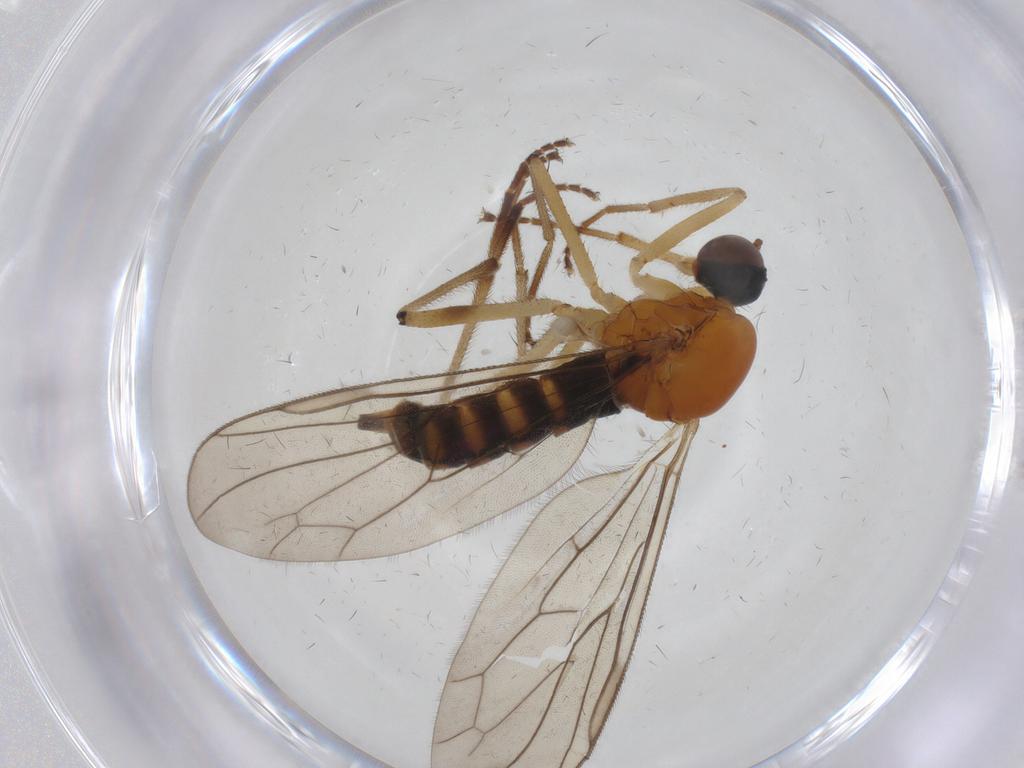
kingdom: Animalia
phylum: Arthropoda
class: Insecta
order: Diptera
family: Hybotidae
